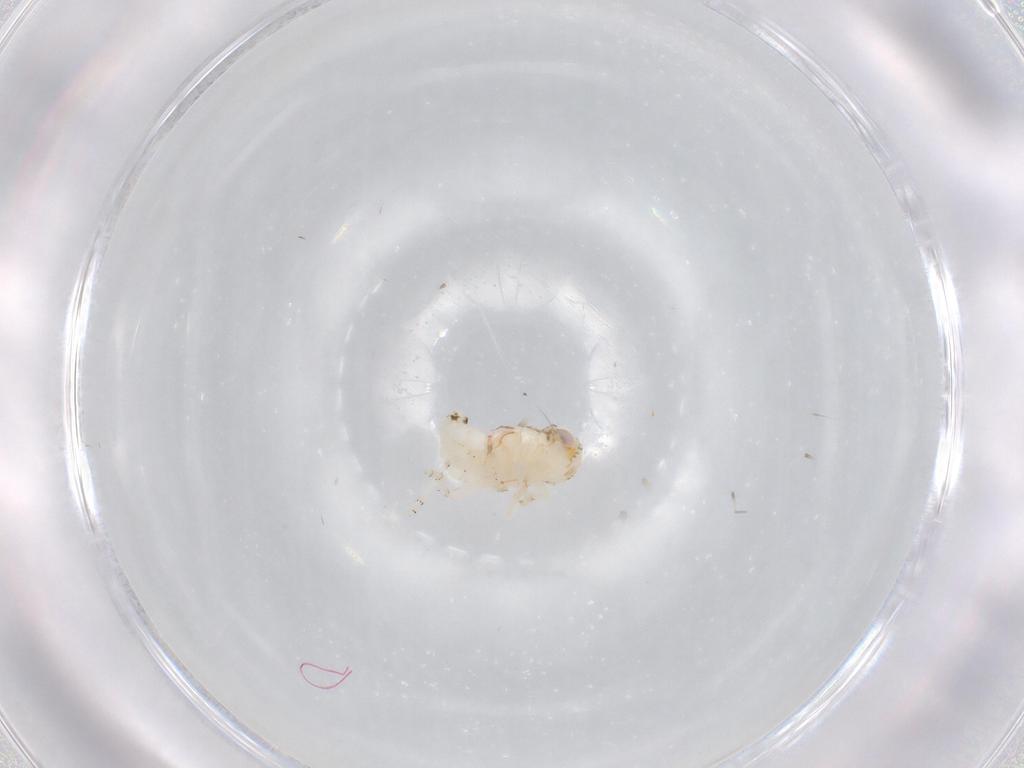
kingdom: Animalia
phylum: Arthropoda
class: Insecta
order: Hemiptera
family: Nogodinidae
